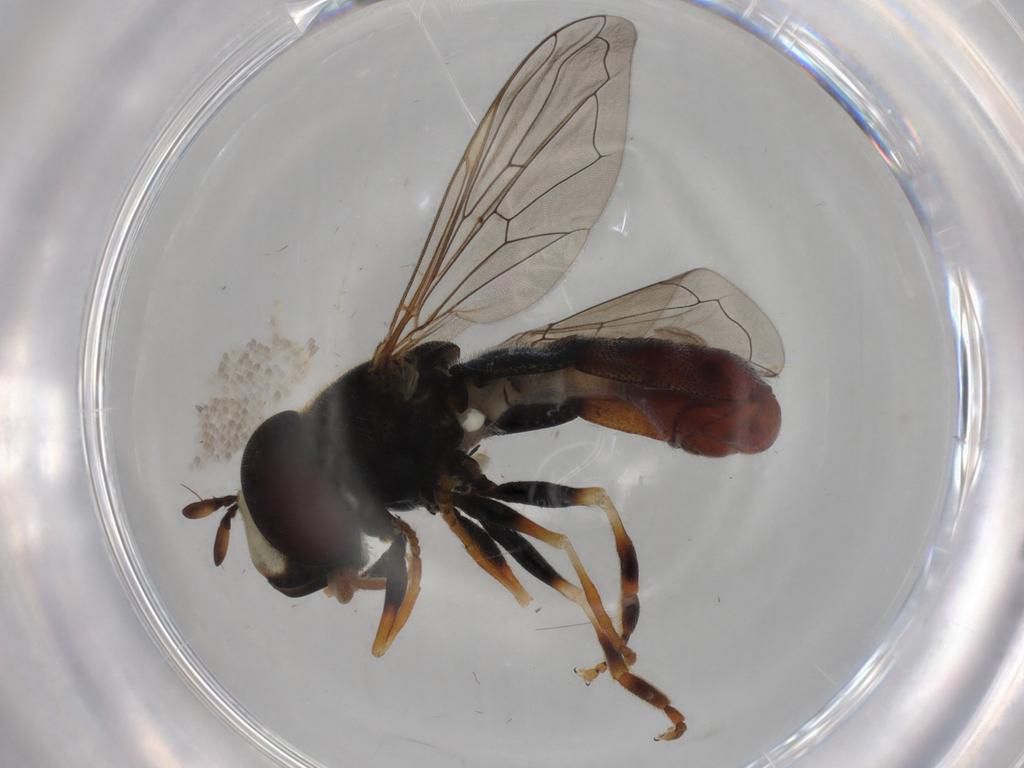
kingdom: Animalia
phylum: Arthropoda
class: Insecta
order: Diptera
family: Syrphidae
